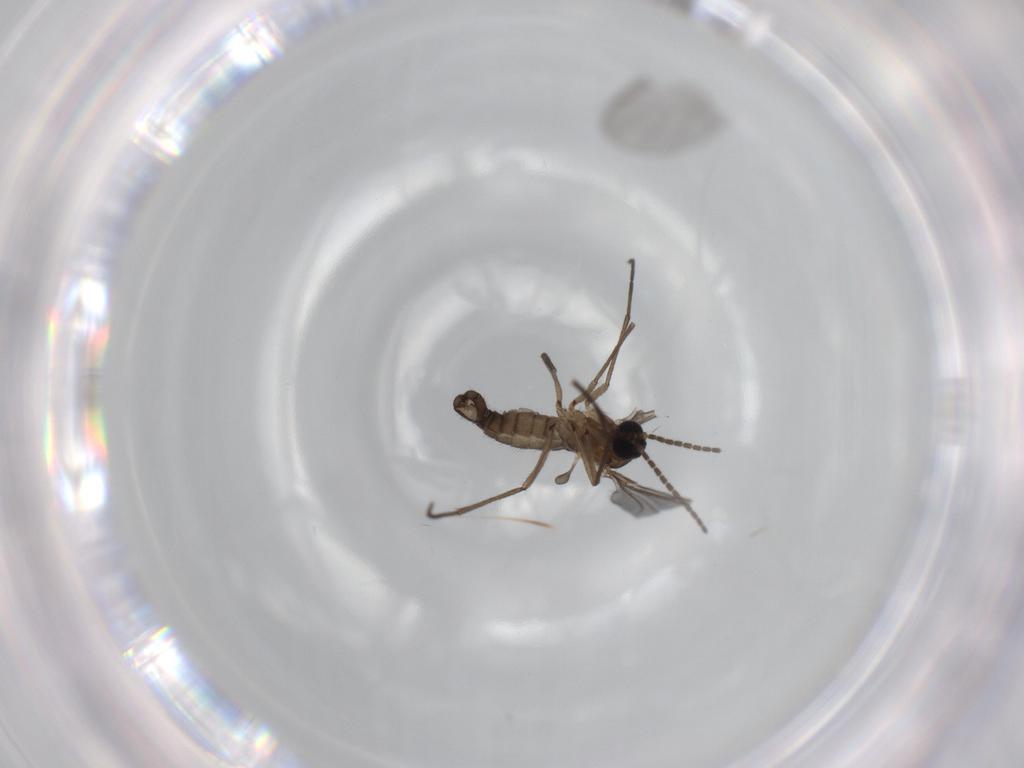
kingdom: Animalia
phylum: Arthropoda
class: Insecta
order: Diptera
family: Sciaridae
